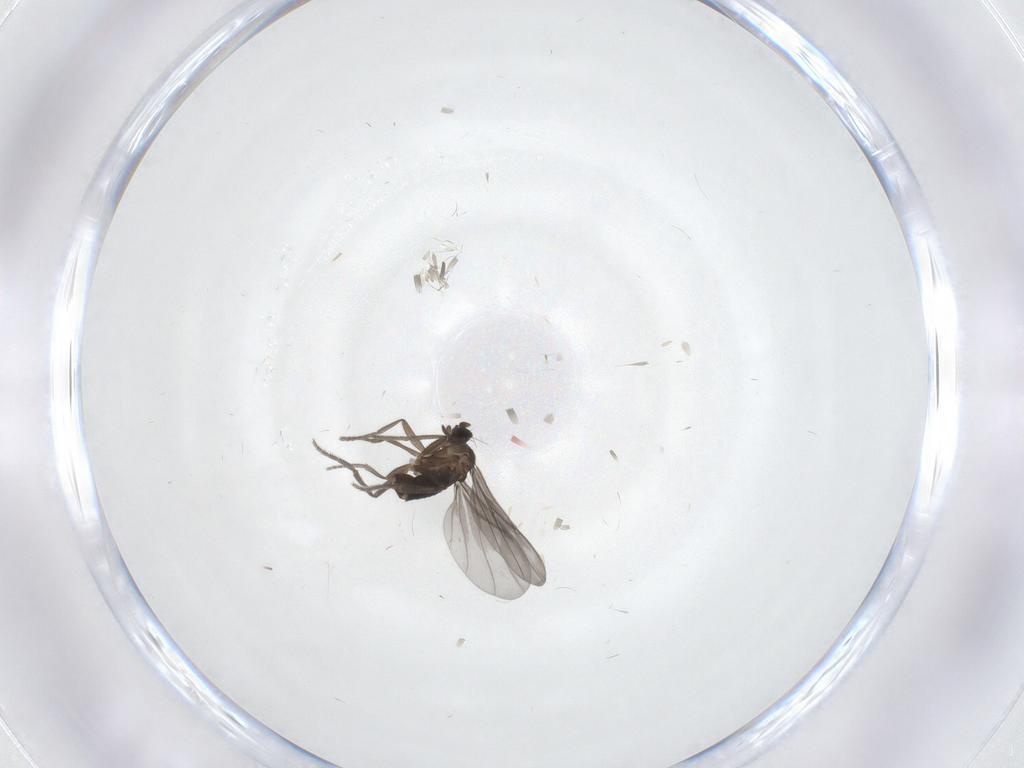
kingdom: Animalia
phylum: Arthropoda
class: Insecta
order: Diptera
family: Phoridae
